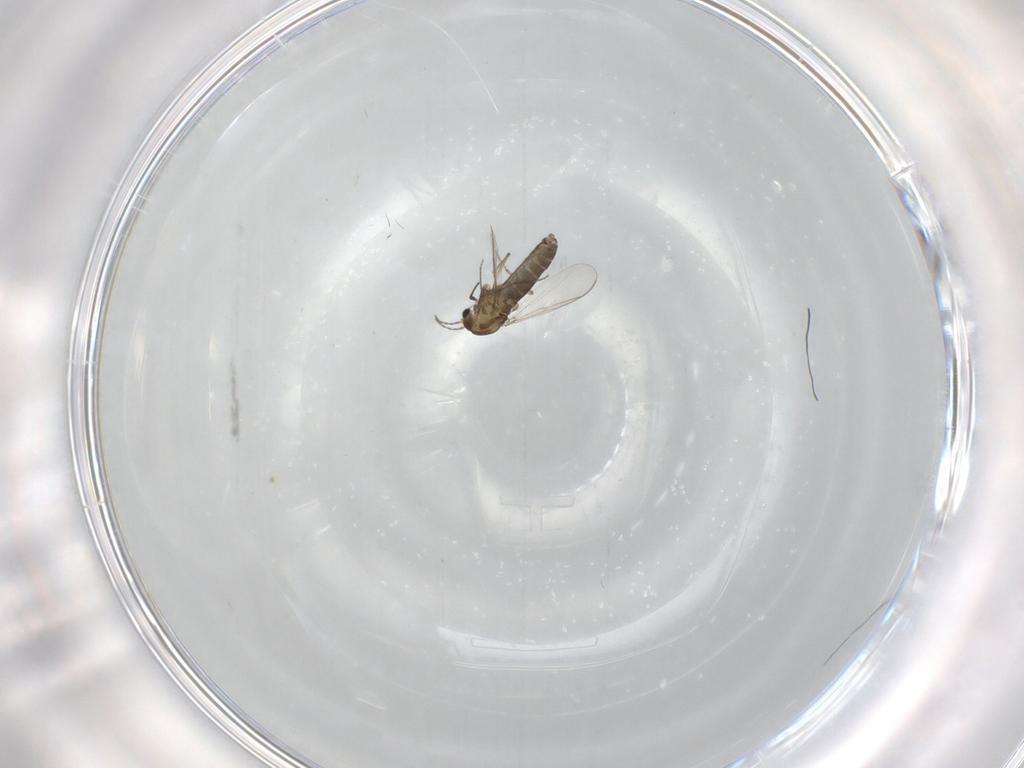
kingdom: Animalia
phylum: Arthropoda
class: Insecta
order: Diptera
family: Chironomidae
